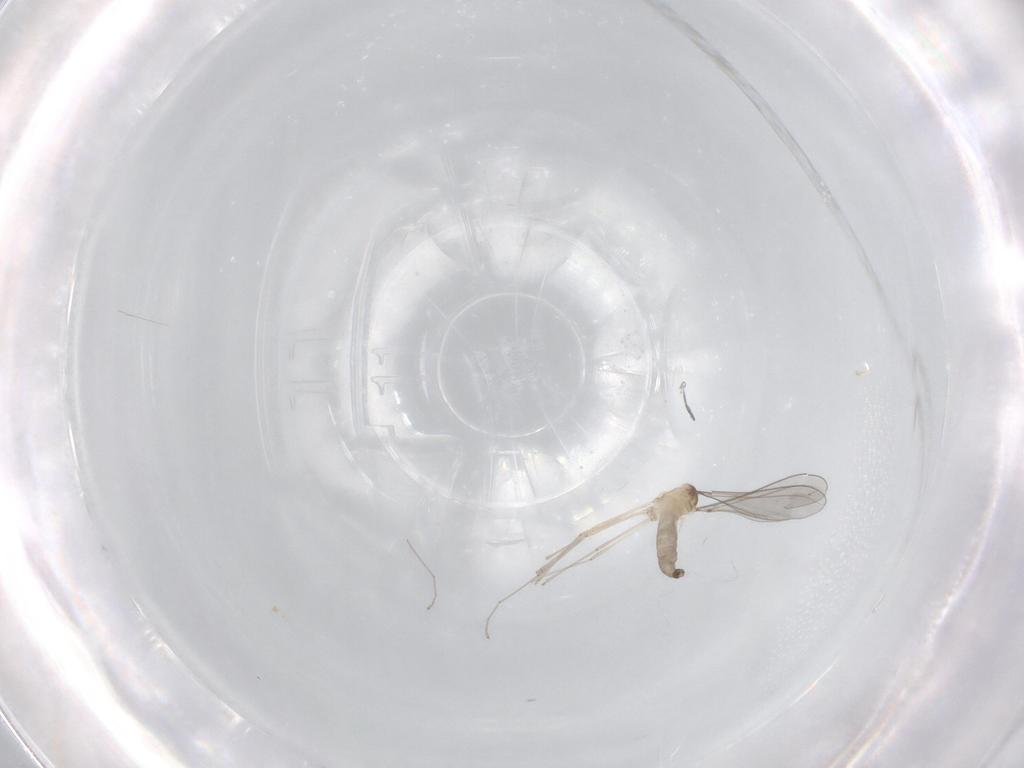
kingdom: Animalia
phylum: Arthropoda
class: Insecta
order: Diptera
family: Cecidomyiidae
